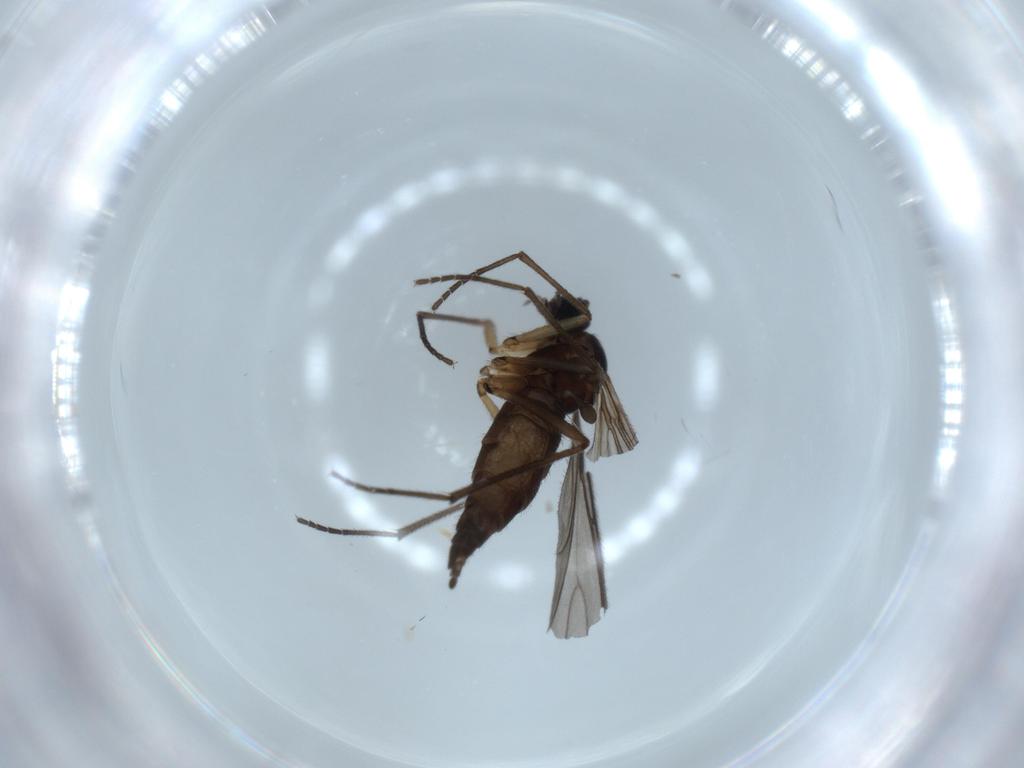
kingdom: Animalia
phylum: Arthropoda
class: Insecta
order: Diptera
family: Sciaridae
